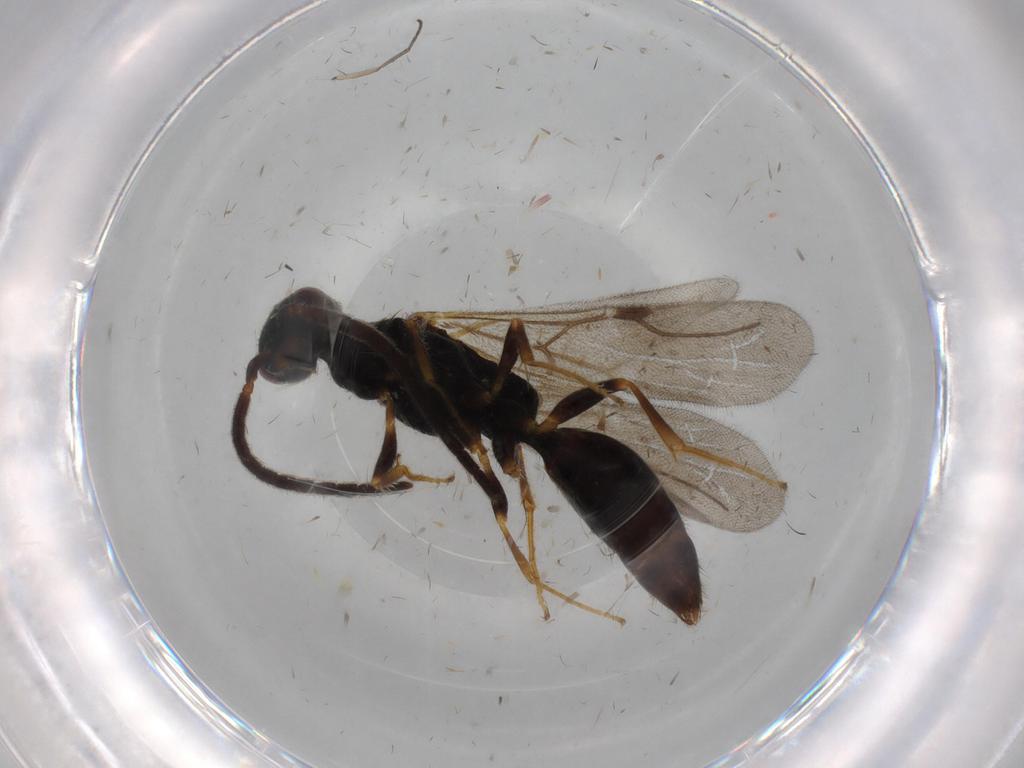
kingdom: Animalia
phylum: Arthropoda
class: Insecta
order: Hymenoptera
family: Bethylidae
